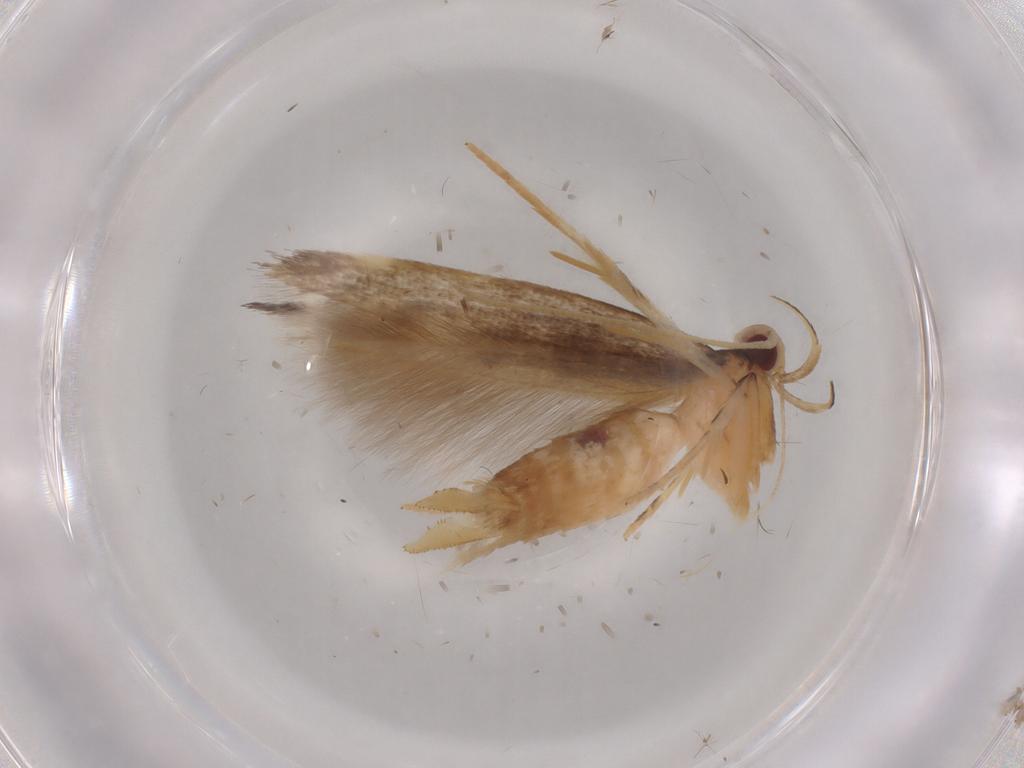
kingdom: Animalia
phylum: Arthropoda
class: Insecta
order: Lepidoptera
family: Cosmopterigidae
